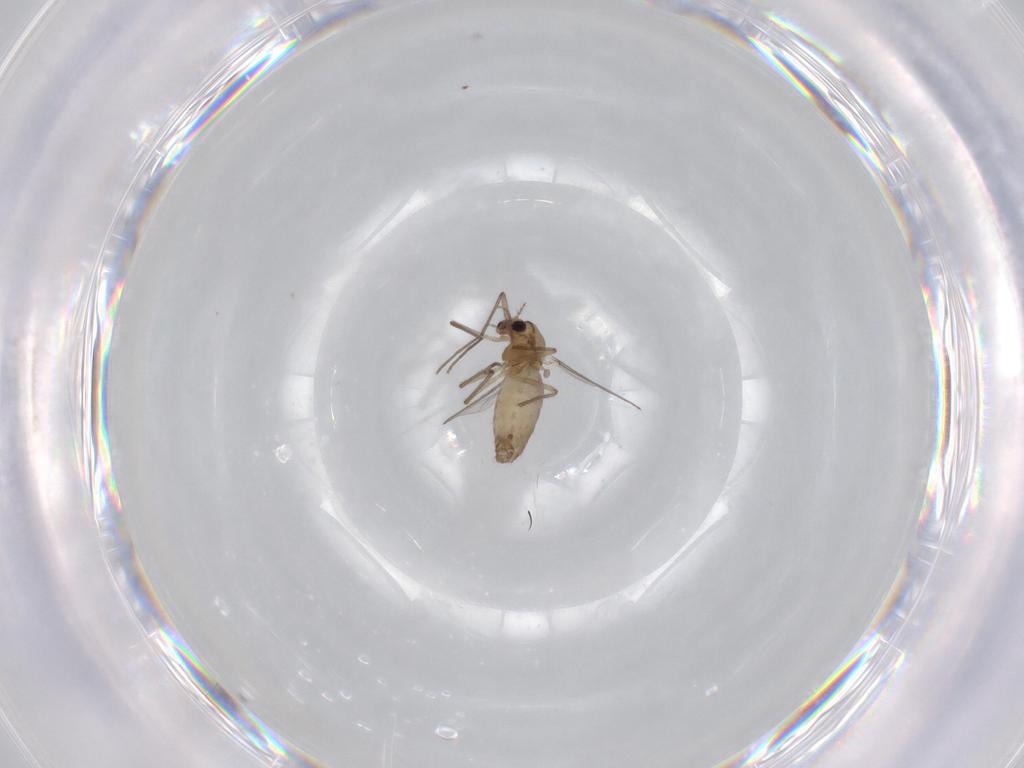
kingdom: Animalia
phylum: Arthropoda
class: Insecta
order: Diptera
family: Chironomidae
